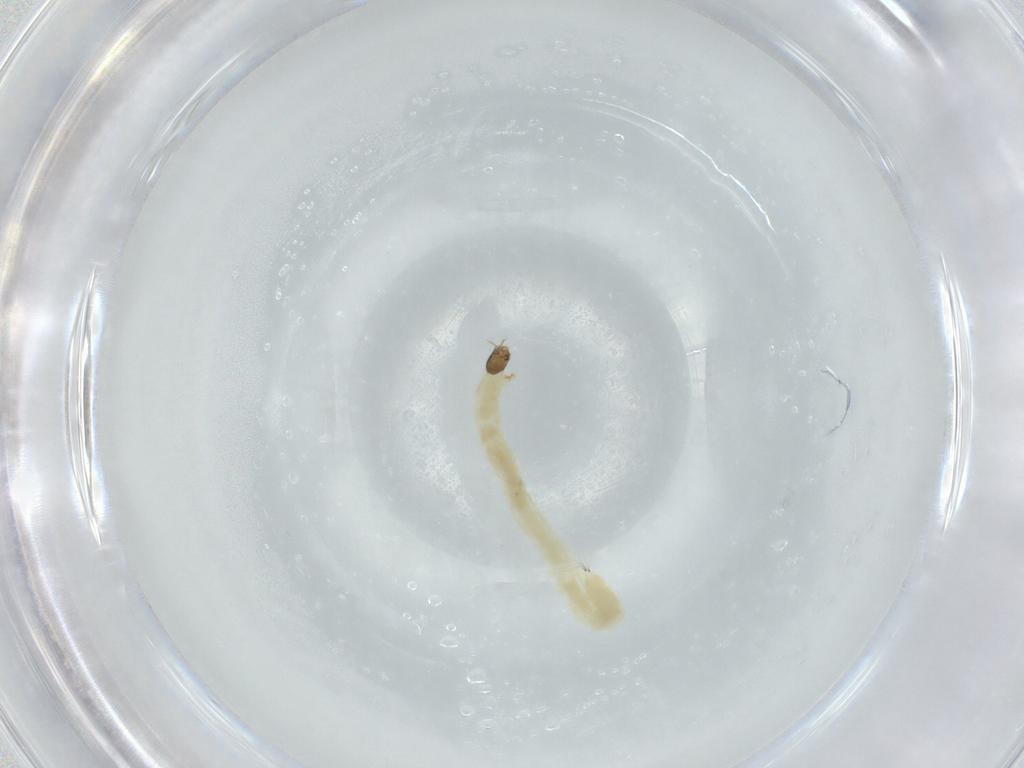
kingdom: Animalia
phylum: Arthropoda
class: Insecta
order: Diptera
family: Chironomidae
